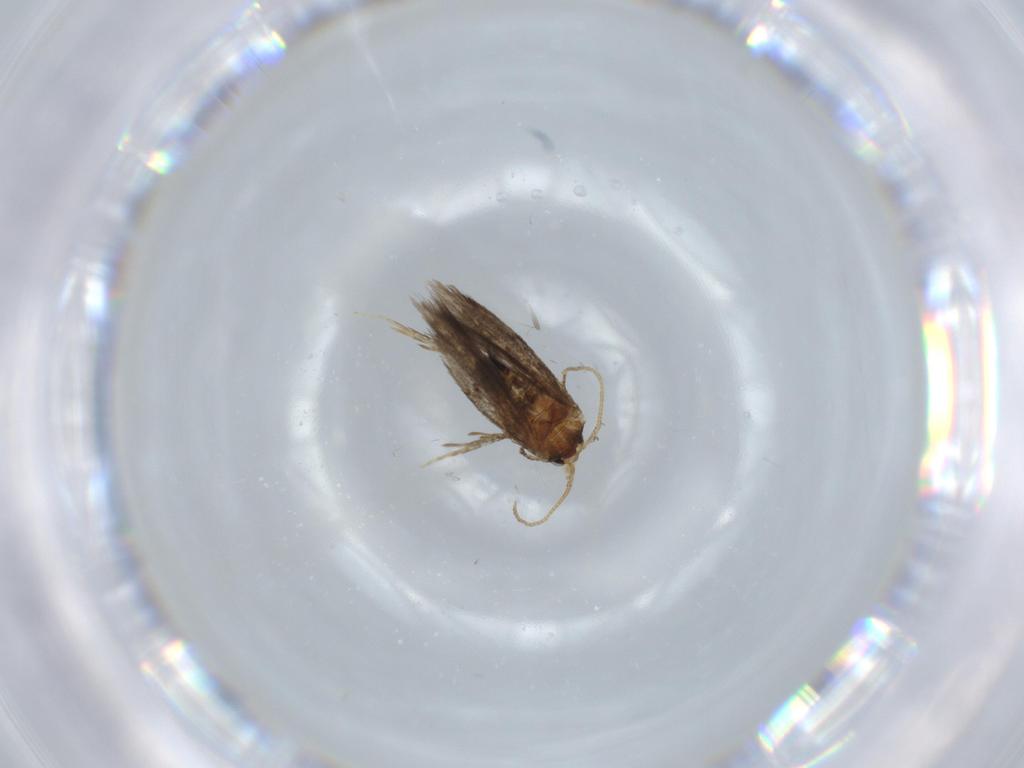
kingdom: Animalia
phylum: Arthropoda
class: Insecta
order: Lepidoptera
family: Nepticulidae
